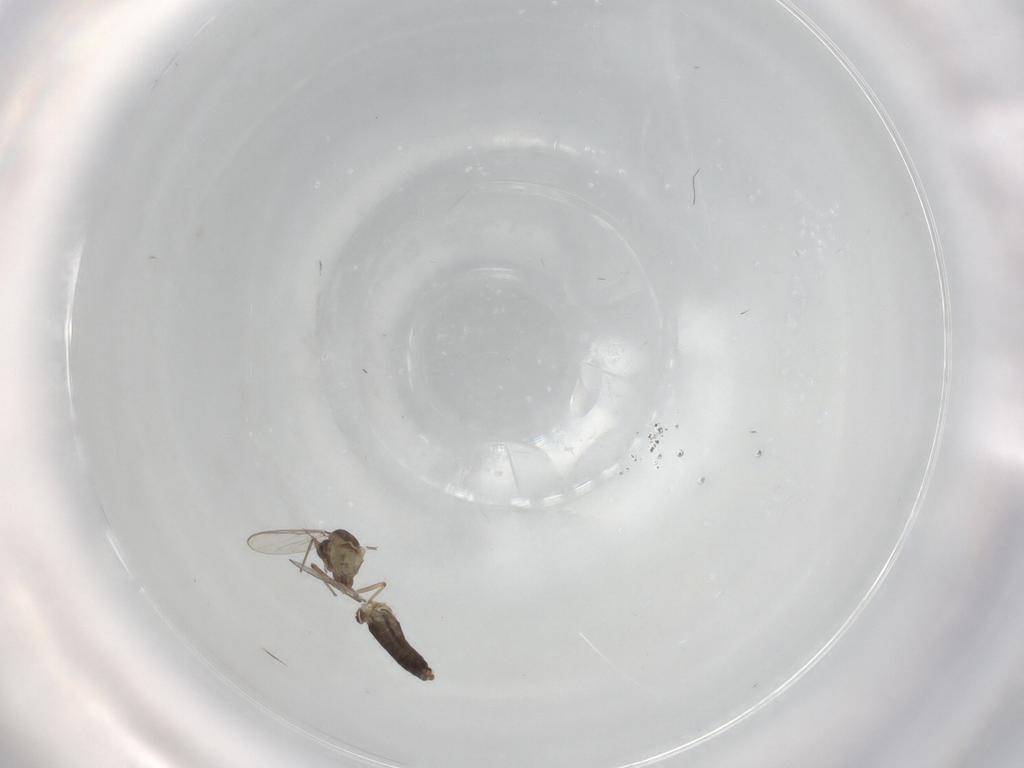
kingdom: Animalia
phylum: Arthropoda
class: Insecta
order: Diptera
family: Chironomidae
